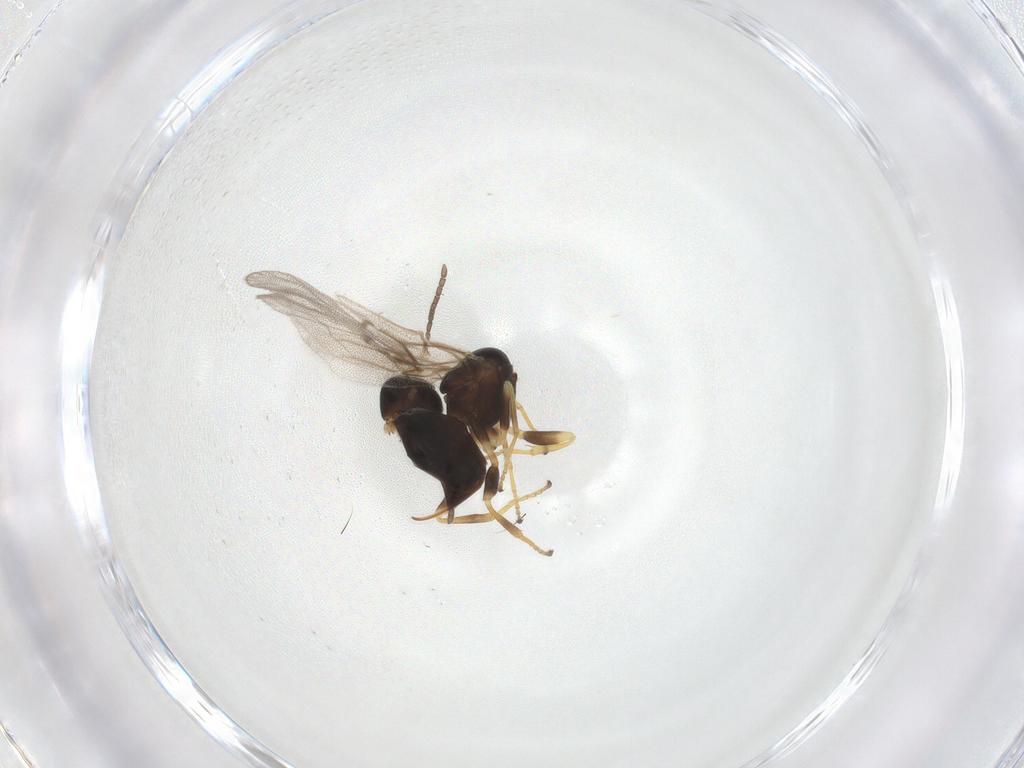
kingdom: Animalia
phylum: Arthropoda
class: Insecta
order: Hymenoptera
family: Cynipidae
